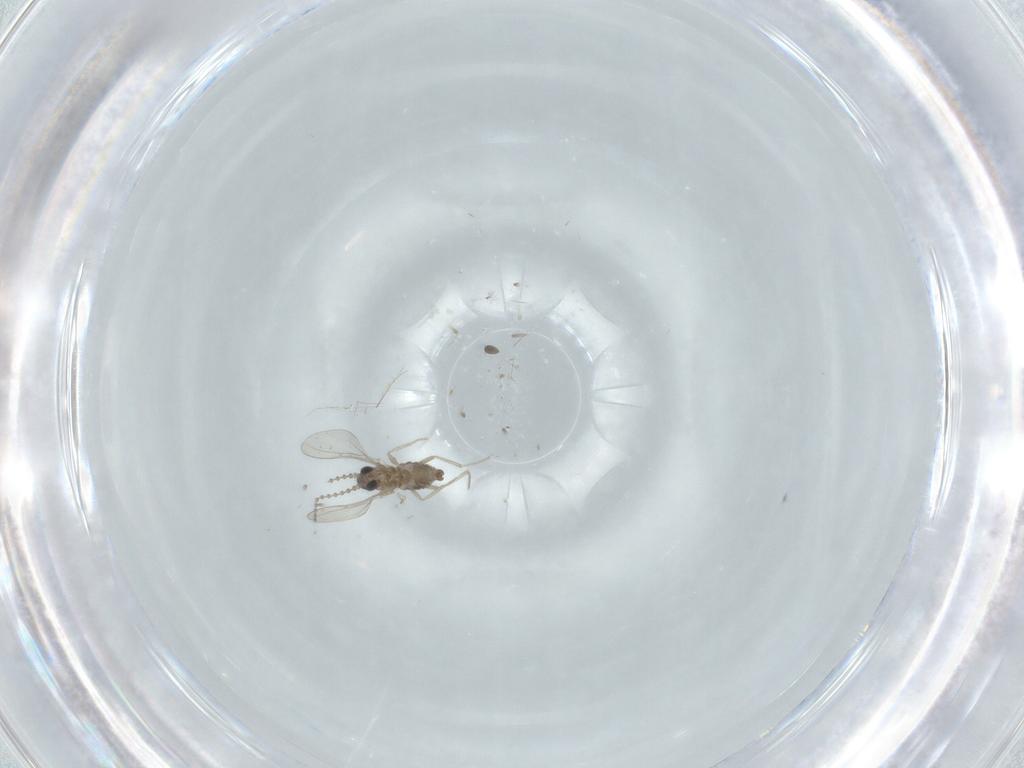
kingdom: Animalia
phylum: Arthropoda
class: Insecta
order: Diptera
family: Cecidomyiidae
